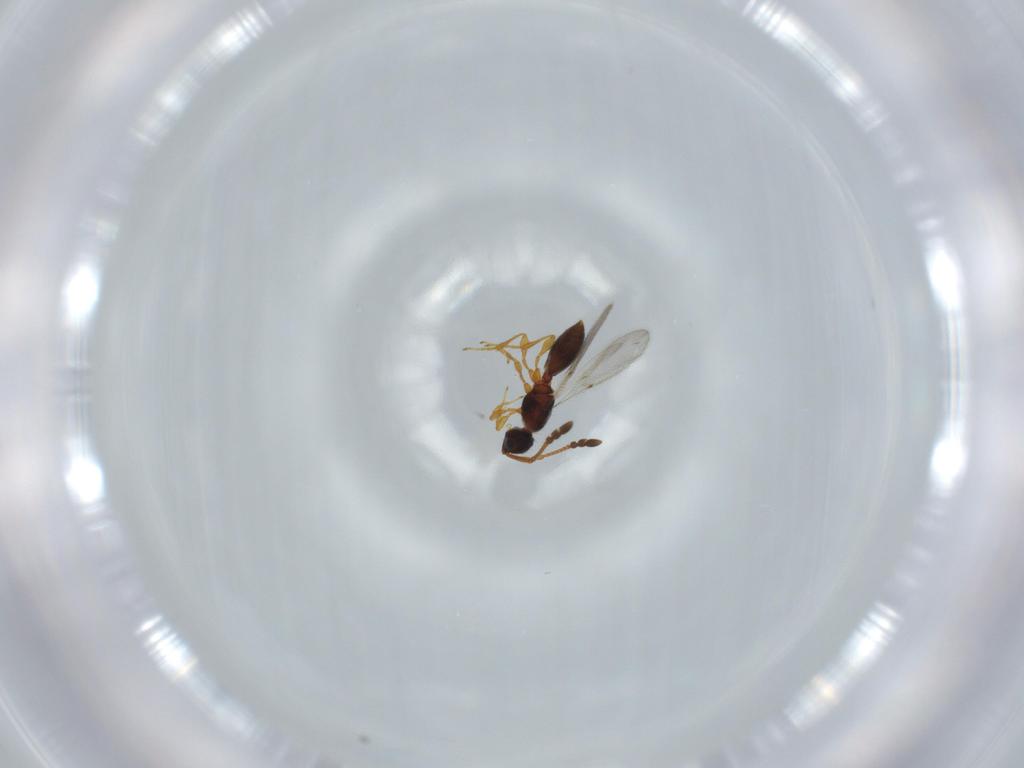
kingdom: Animalia
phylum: Arthropoda
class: Insecta
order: Hymenoptera
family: Diapriidae
